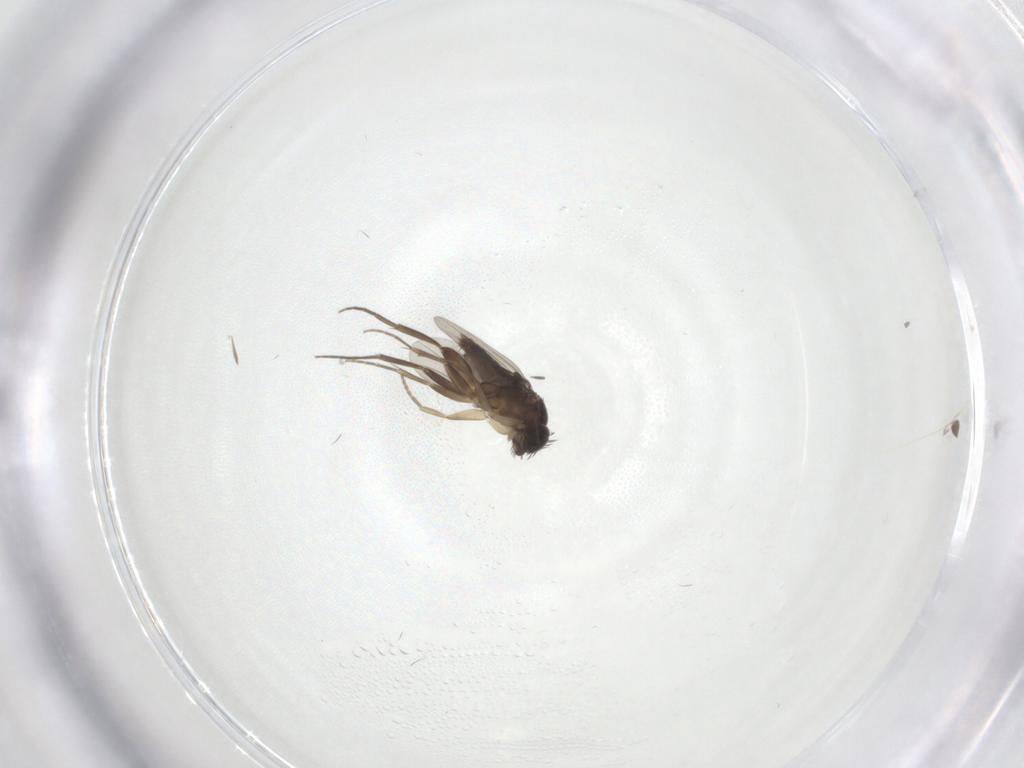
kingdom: Animalia
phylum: Arthropoda
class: Insecta
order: Diptera
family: Phoridae
